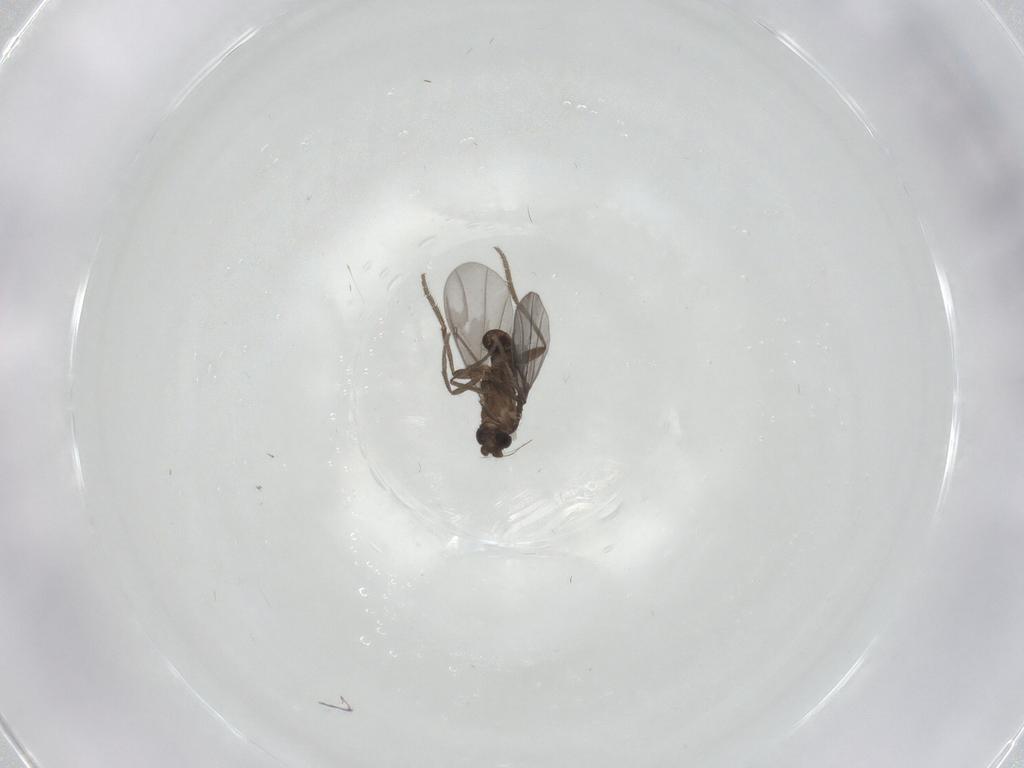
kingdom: Animalia
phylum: Arthropoda
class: Insecta
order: Diptera
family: Phoridae
